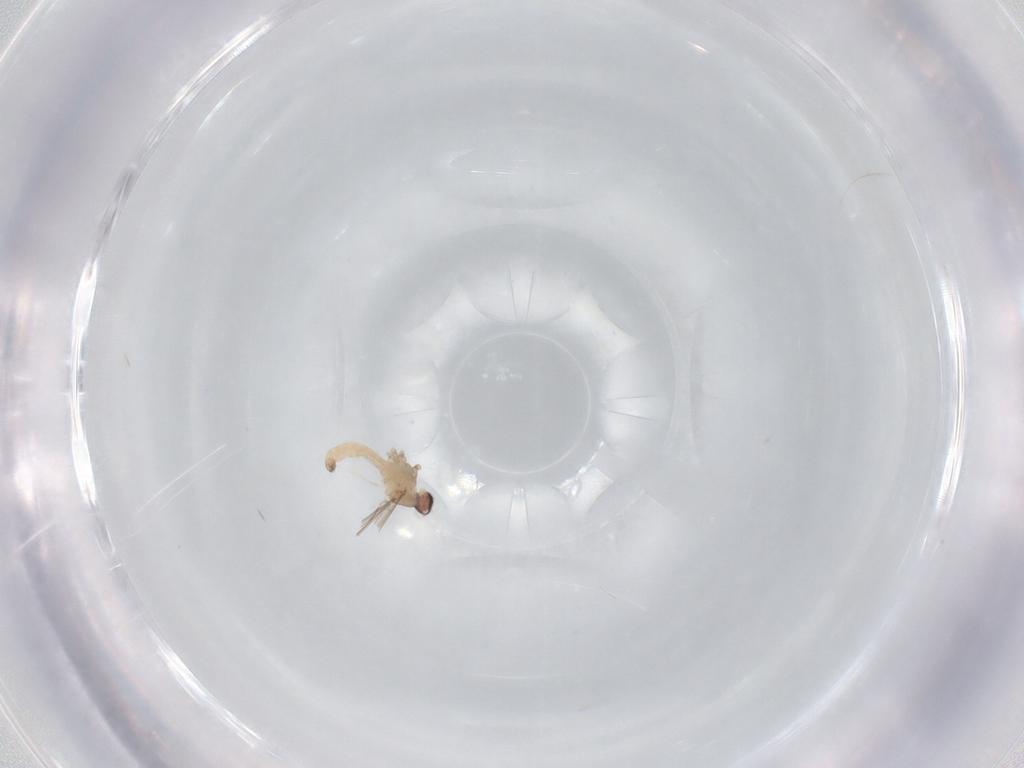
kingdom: Animalia
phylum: Arthropoda
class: Insecta
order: Diptera
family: Cecidomyiidae
